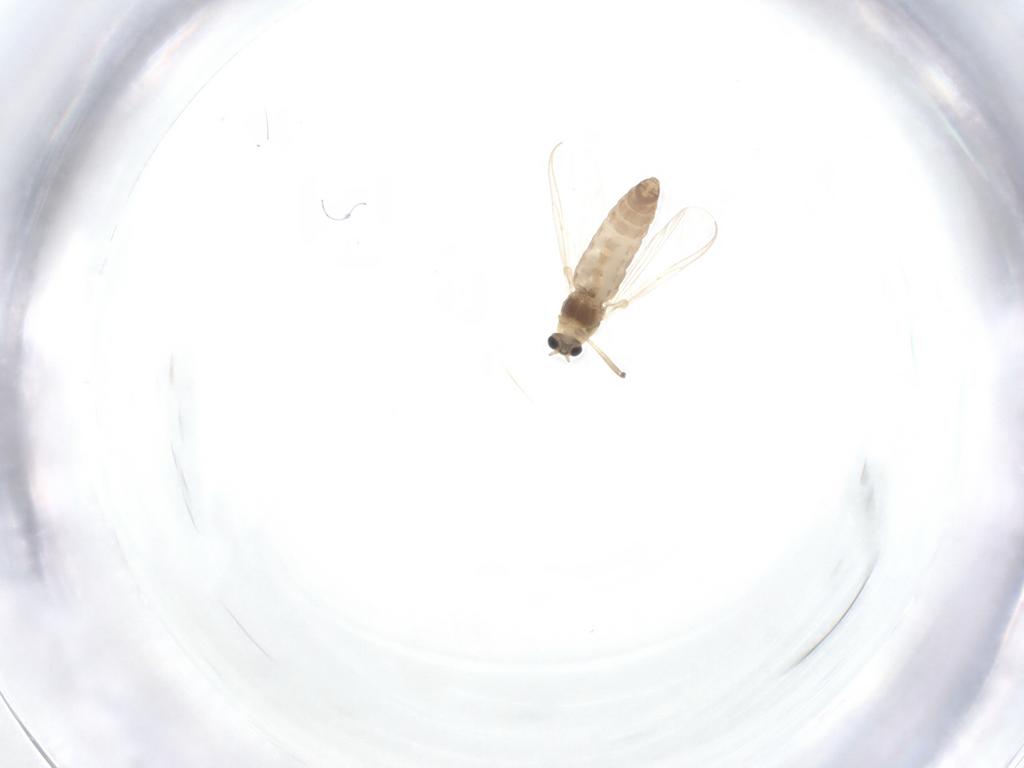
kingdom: Animalia
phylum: Arthropoda
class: Insecta
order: Diptera
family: Chironomidae
